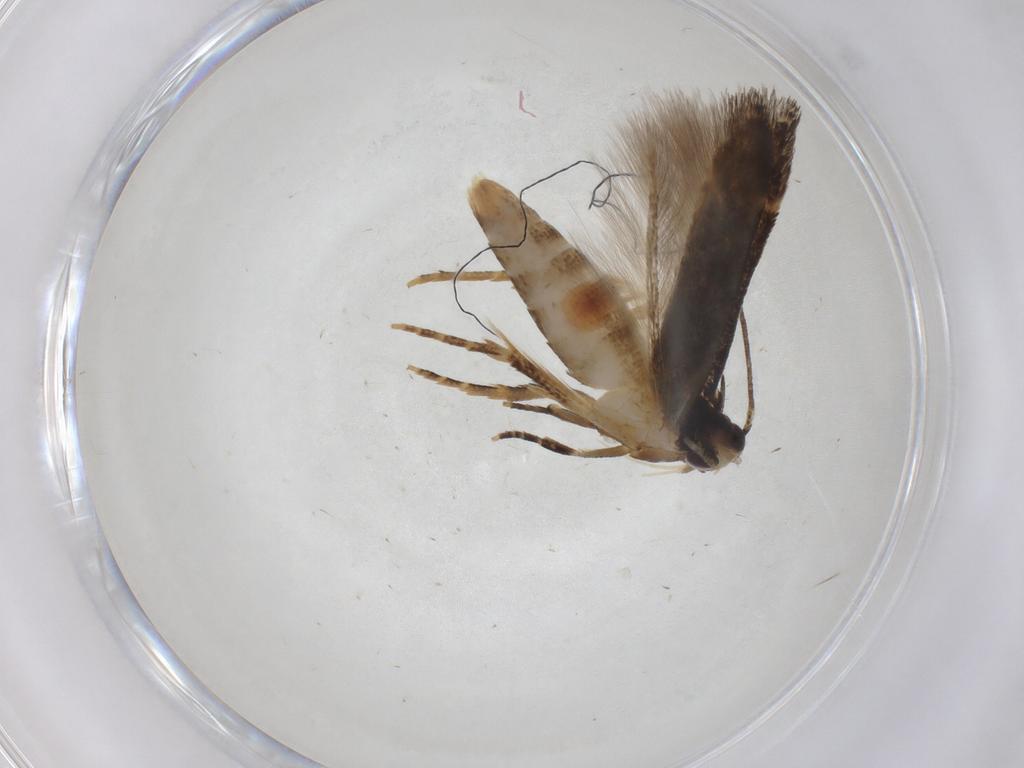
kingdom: Animalia
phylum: Arthropoda
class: Insecta
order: Lepidoptera
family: Cosmopterigidae
